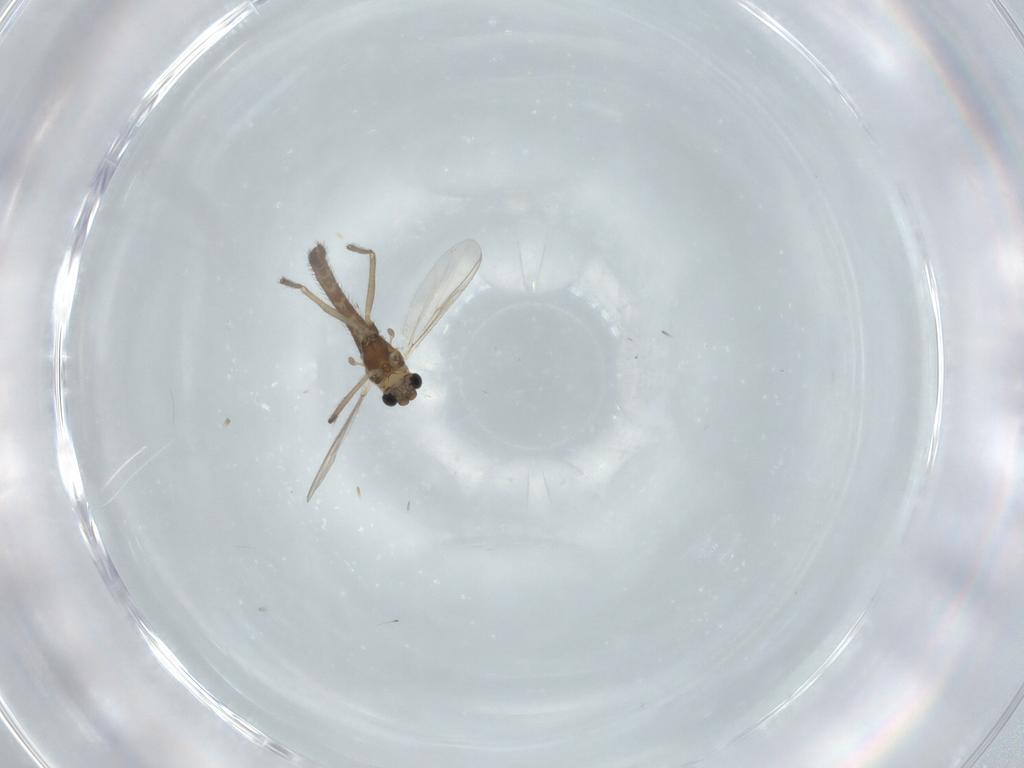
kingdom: Animalia
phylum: Arthropoda
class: Insecta
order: Diptera
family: Chironomidae
